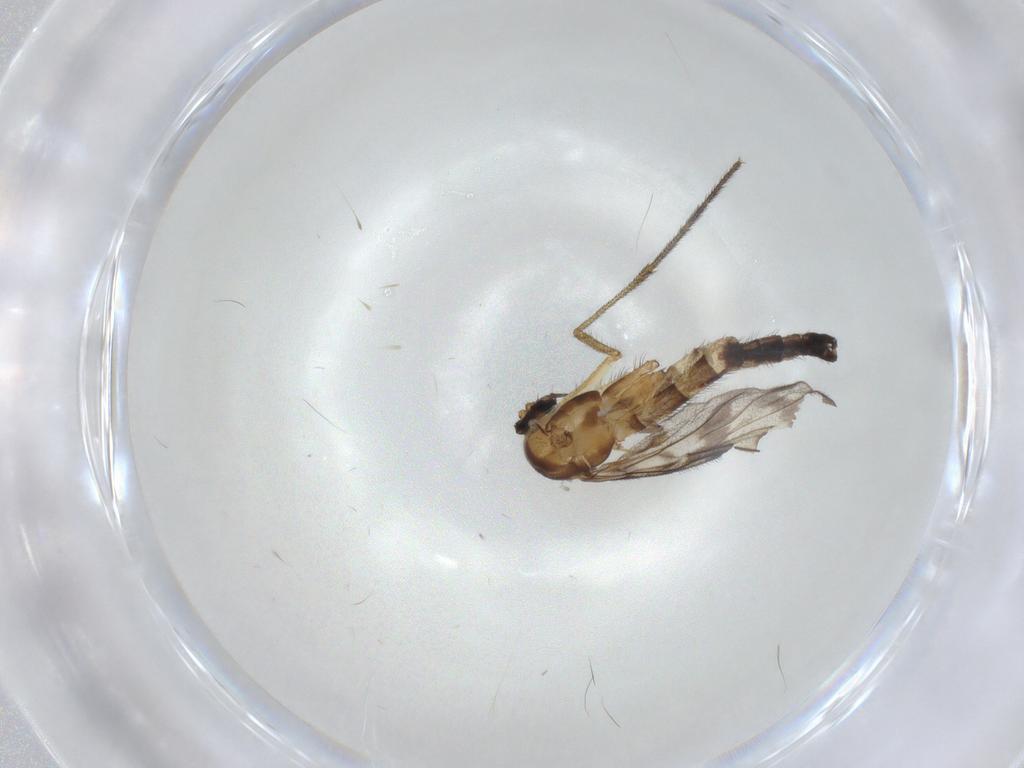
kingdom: Animalia
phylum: Arthropoda
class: Insecta
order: Diptera
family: Keroplatidae
